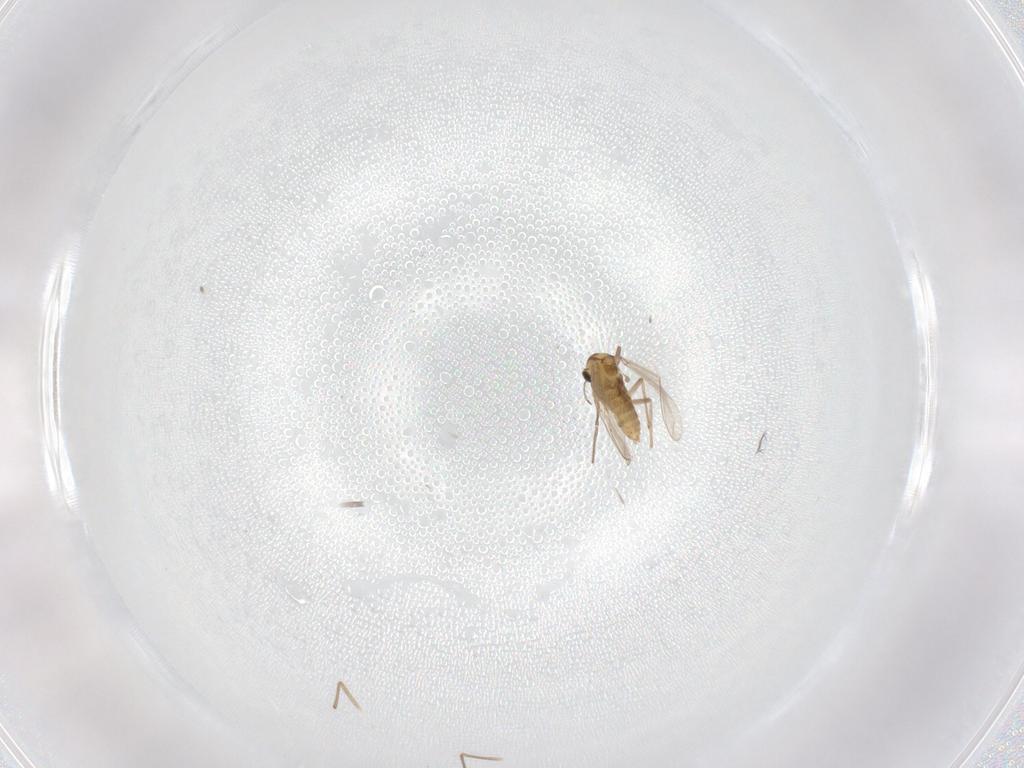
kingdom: Animalia
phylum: Arthropoda
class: Insecta
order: Diptera
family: Chironomidae
